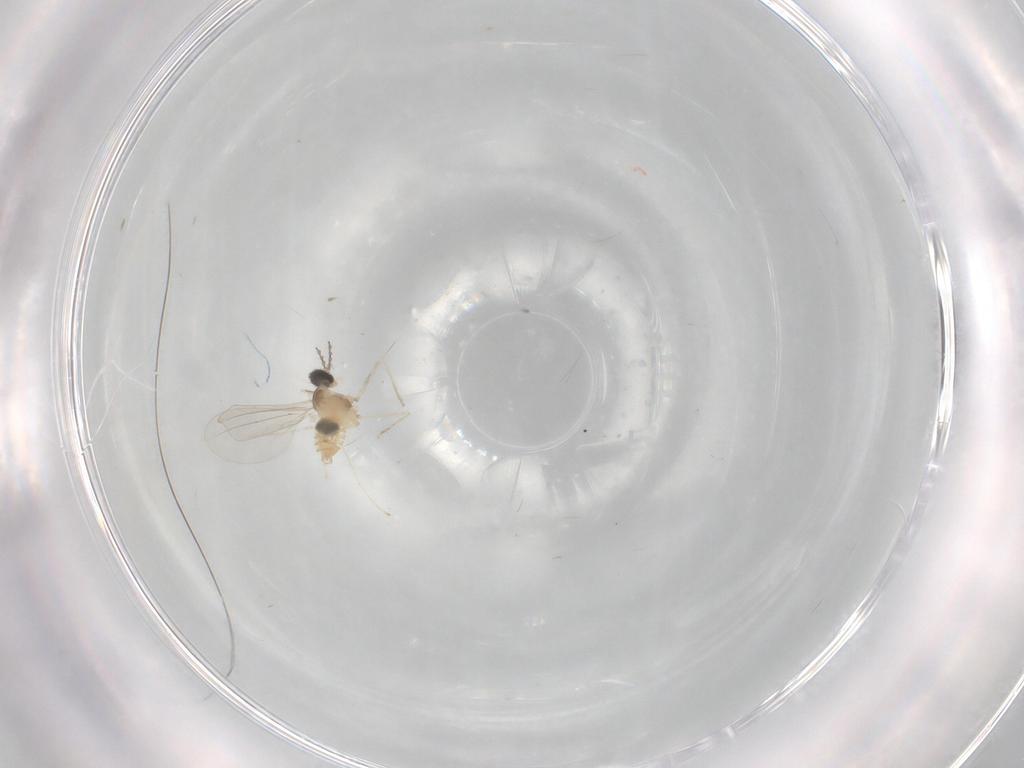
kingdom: Animalia
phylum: Arthropoda
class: Insecta
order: Diptera
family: Cecidomyiidae
